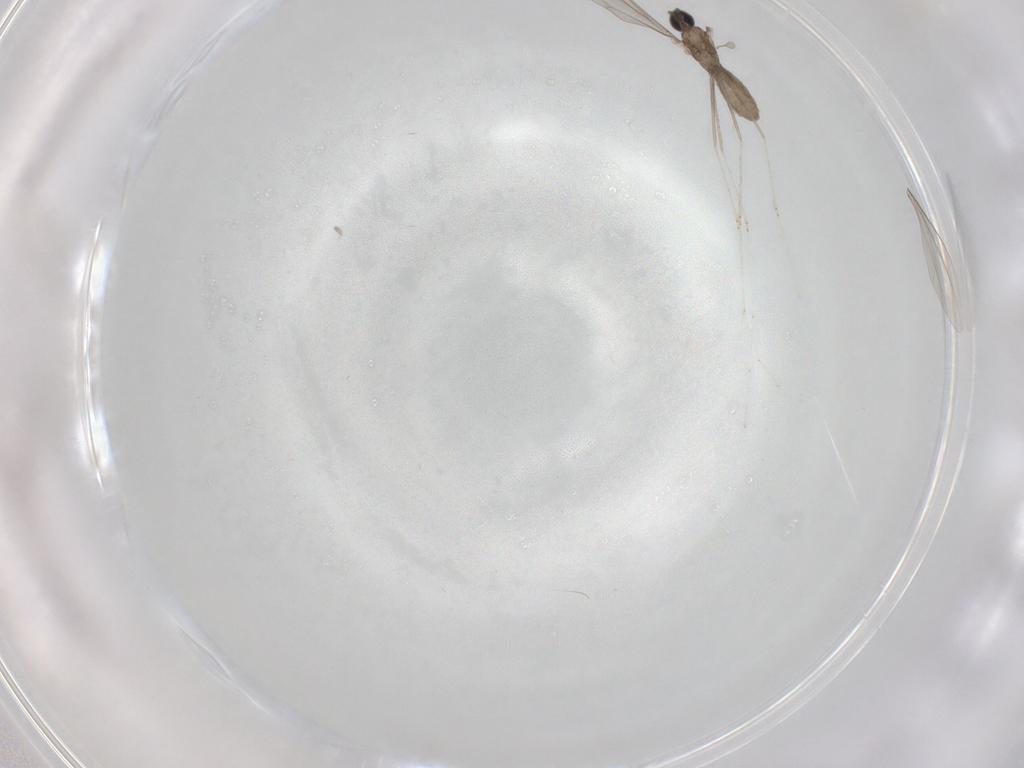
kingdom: Animalia
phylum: Arthropoda
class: Insecta
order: Diptera
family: Cecidomyiidae
